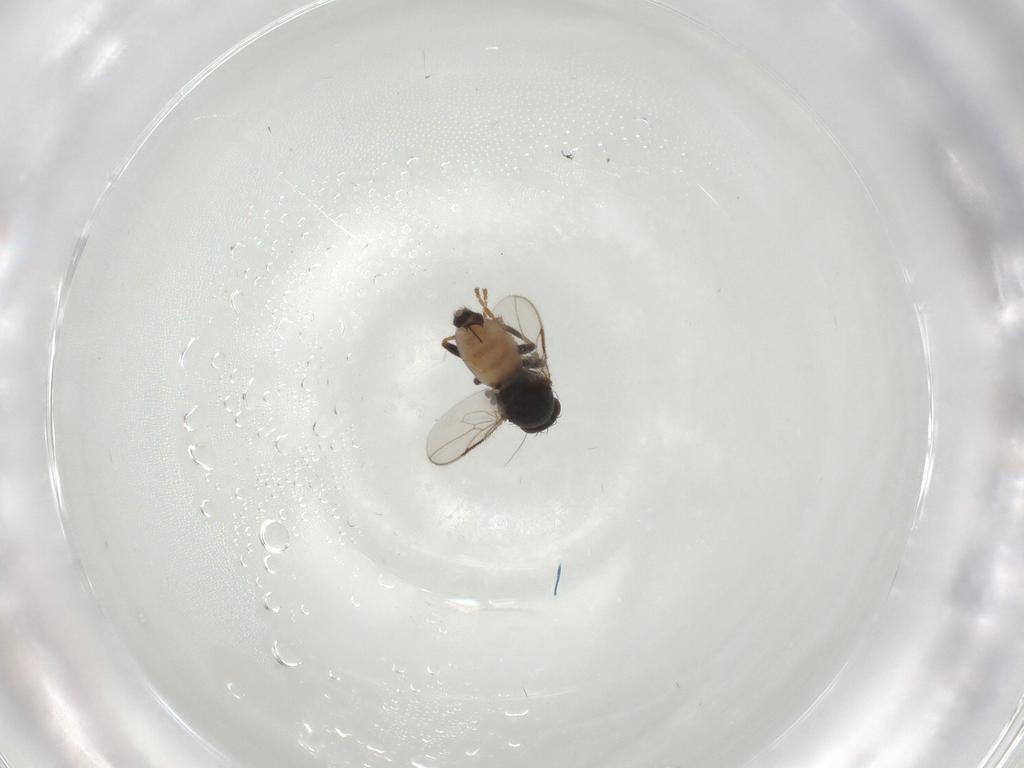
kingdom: Animalia
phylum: Arthropoda
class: Insecta
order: Diptera
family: Sphaeroceridae
